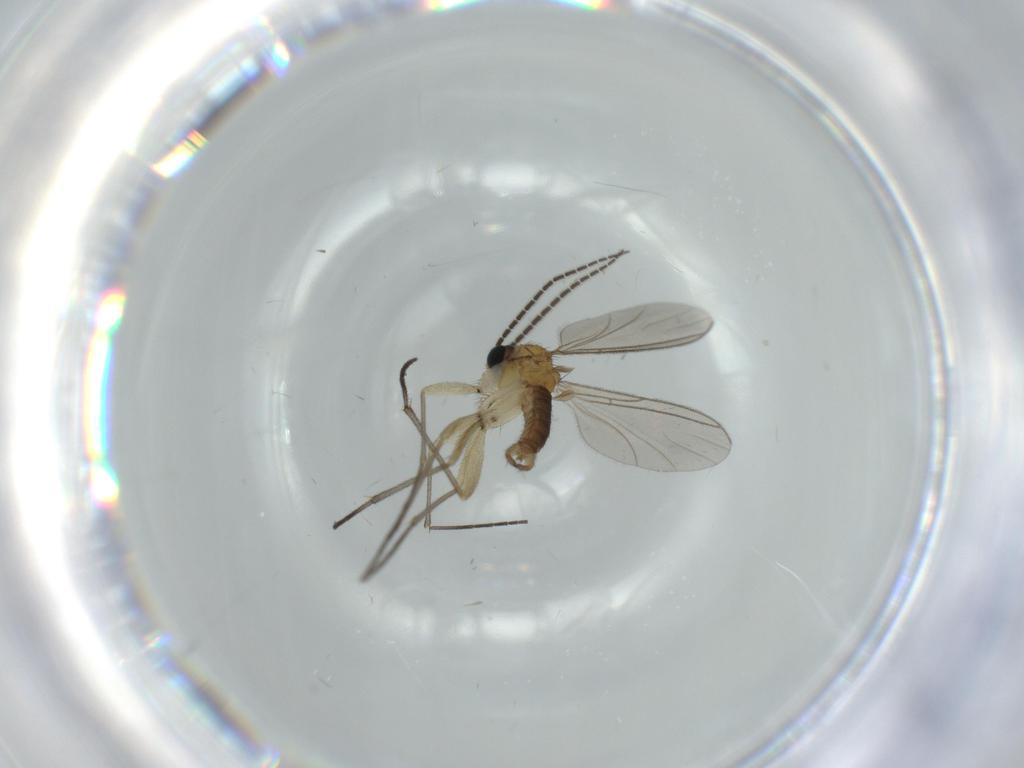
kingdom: Animalia
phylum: Arthropoda
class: Insecta
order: Diptera
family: Sciaridae
